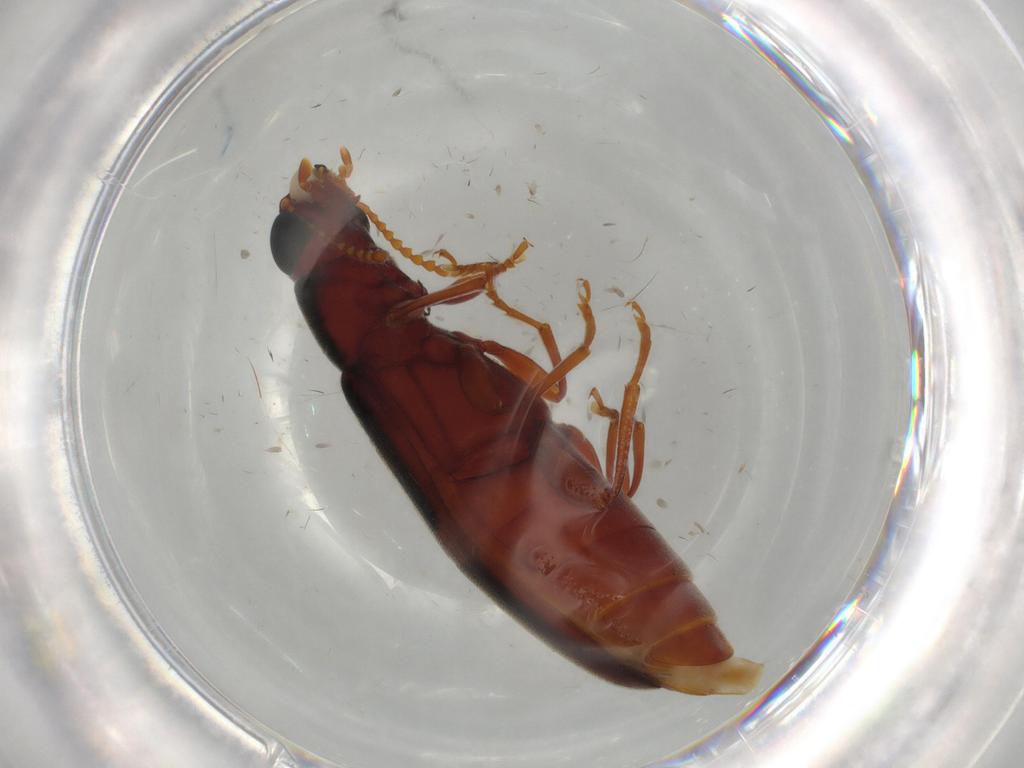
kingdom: Animalia
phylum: Arthropoda
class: Insecta
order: Coleoptera
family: Mycteridae
